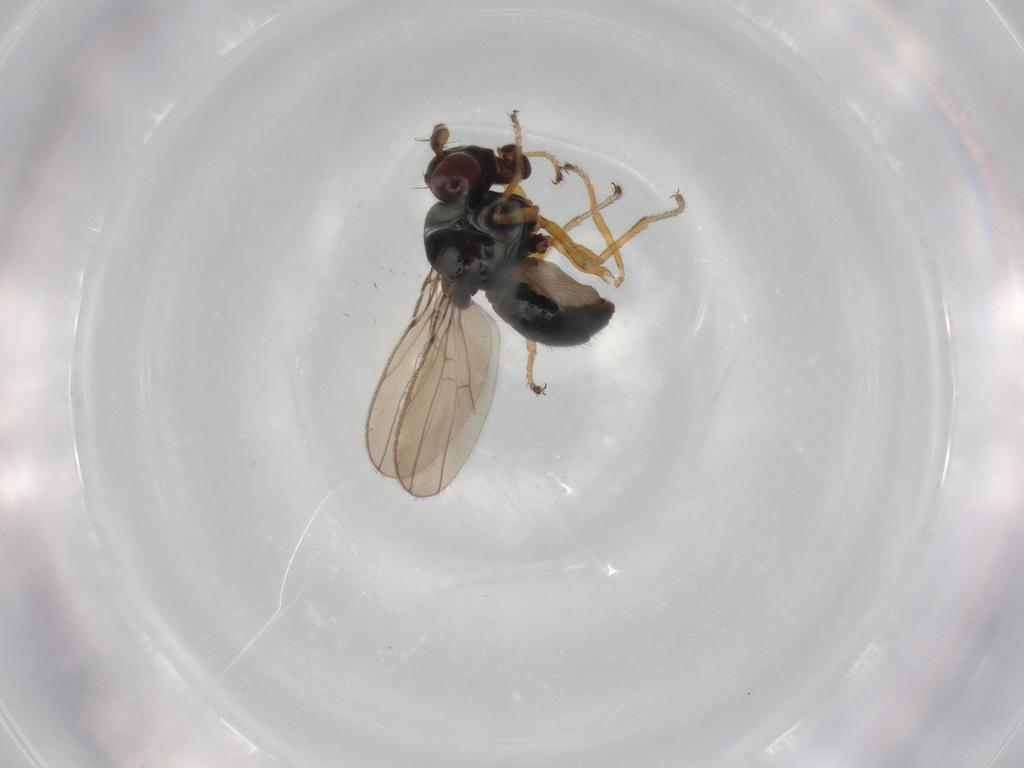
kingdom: Animalia
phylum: Arthropoda
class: Insecta
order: Diptera
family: Ephydridae
